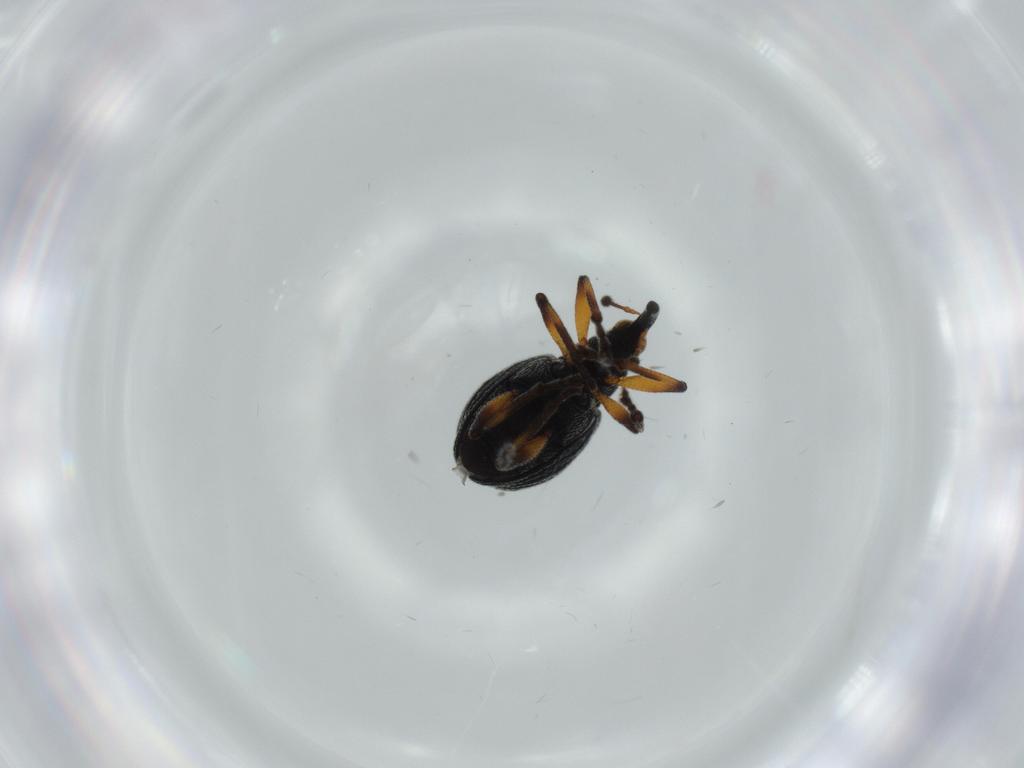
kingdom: Animalia
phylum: Arthropoda
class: Insecta
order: Coleoptera
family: Brentidae
